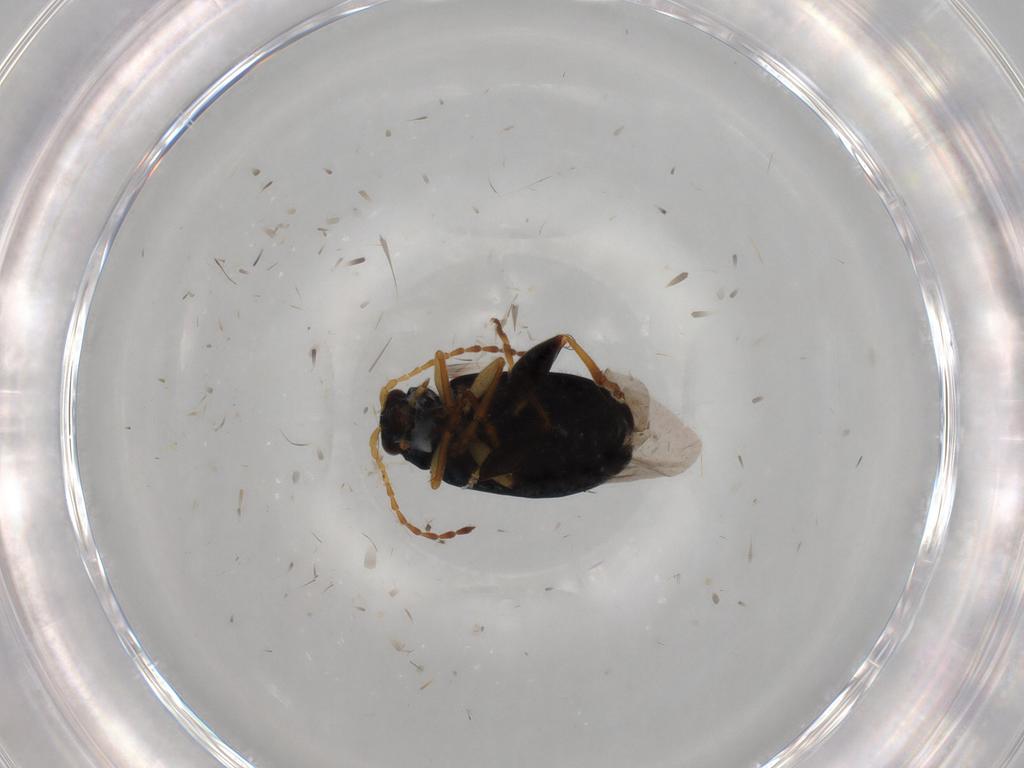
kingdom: Animalia
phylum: Arthropoda
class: Insecta
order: Coleoptera
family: Chrysomelidae
